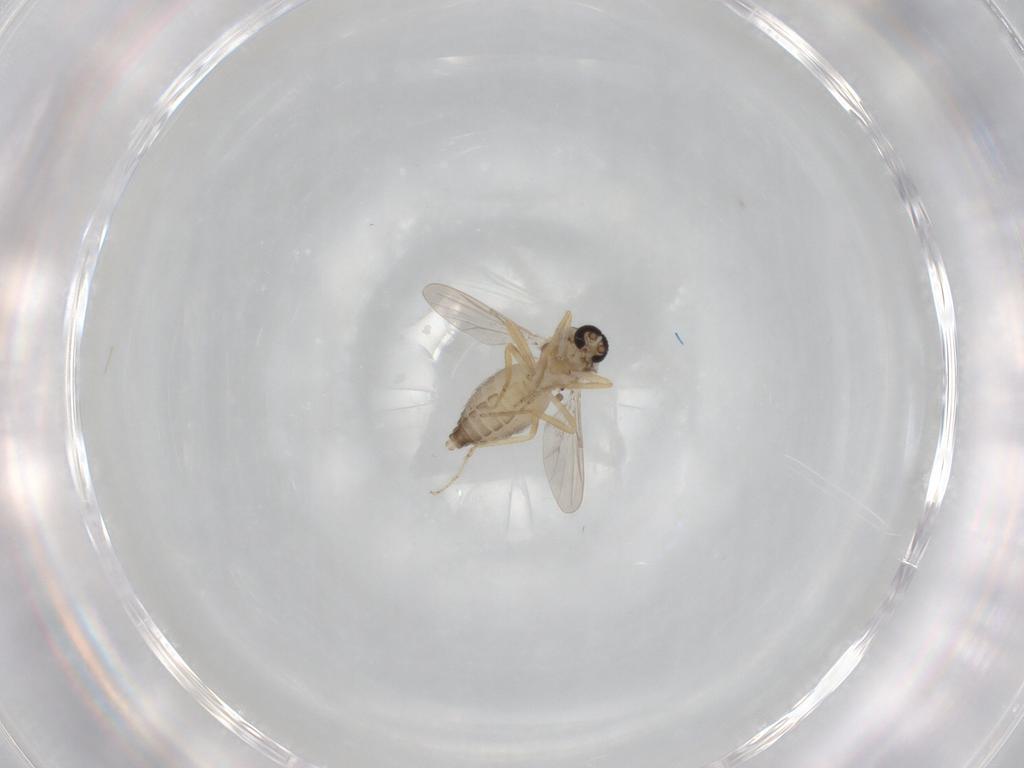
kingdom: Animalia
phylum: Arthropoda
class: Insecta
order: Diptera
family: Ceratopogonidae
